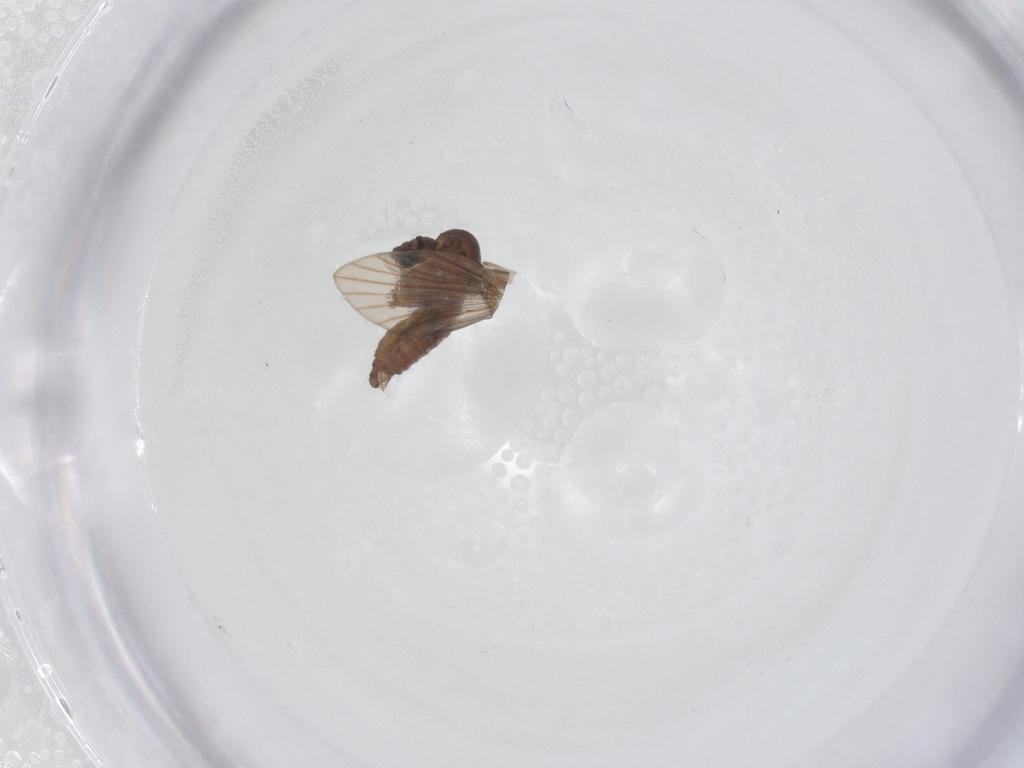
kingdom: Animalia
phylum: Arthropoda
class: Insecta
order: Diptera
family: Psychodidae
